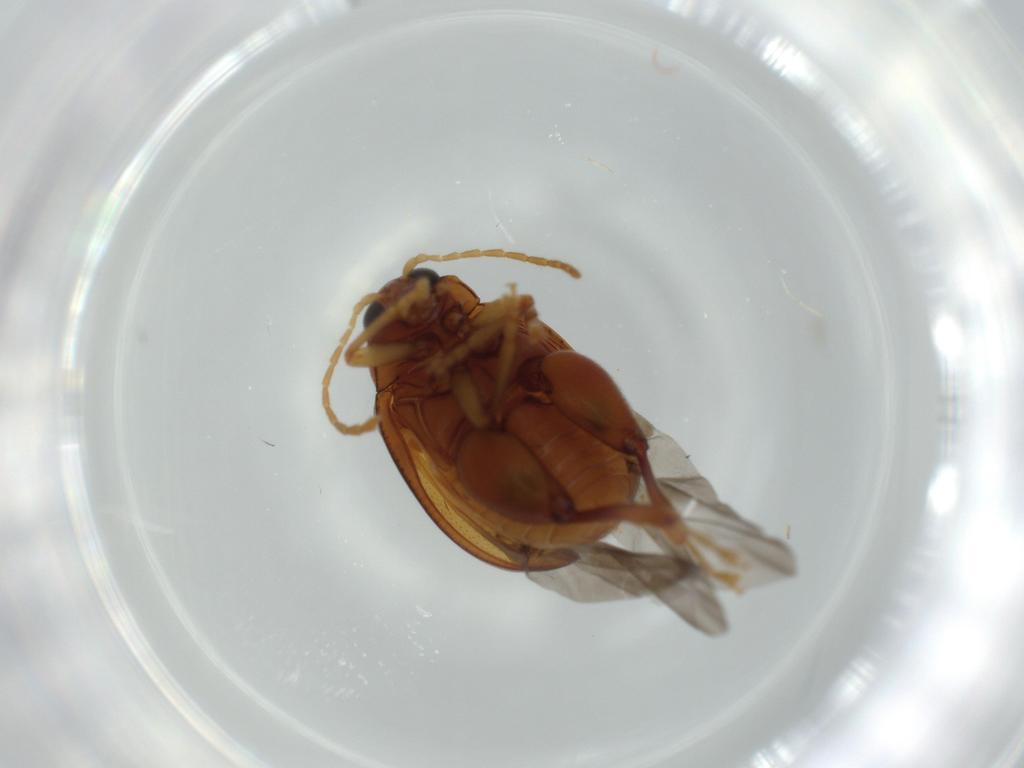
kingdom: Animalia
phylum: Arthropoda
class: Insecta
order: Coleoptera
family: Chrysomelidae
